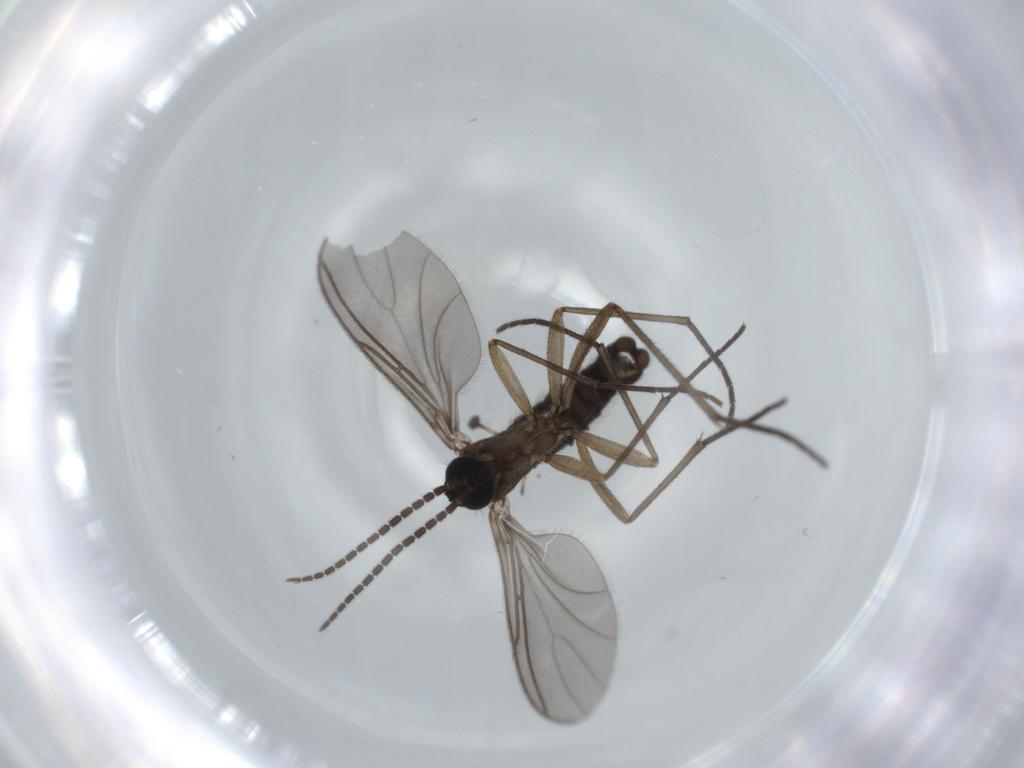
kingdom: Animalia
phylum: Arthropoda
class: Insecta
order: Diptera
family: Sciaridae
